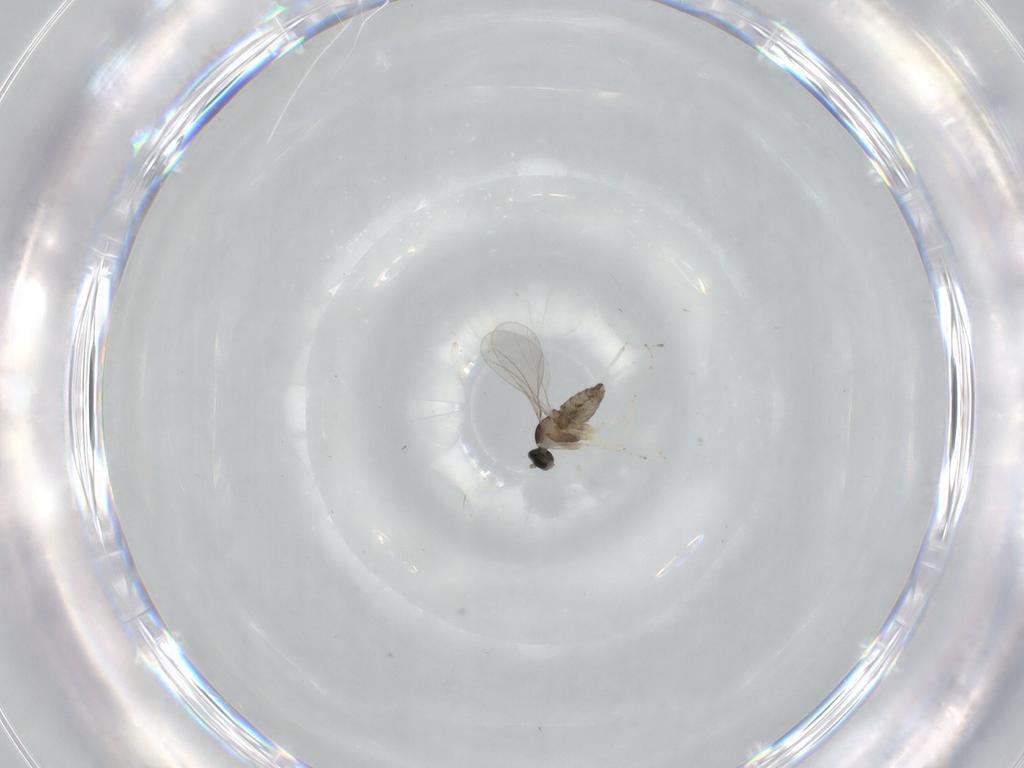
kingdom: Animalia
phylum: Arthropoda
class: Insecta
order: Diptera
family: Cecidomyiidae
